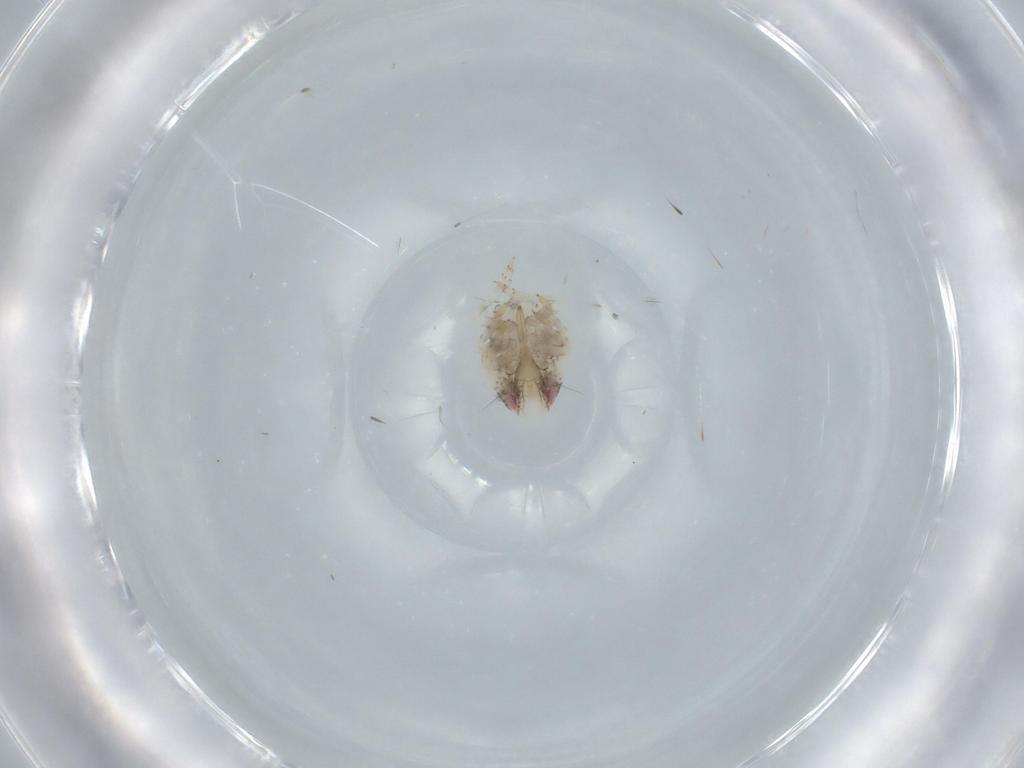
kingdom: Animalia
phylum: Arthropoda
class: Insecta
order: Hemiptera
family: Acanaloniidae
